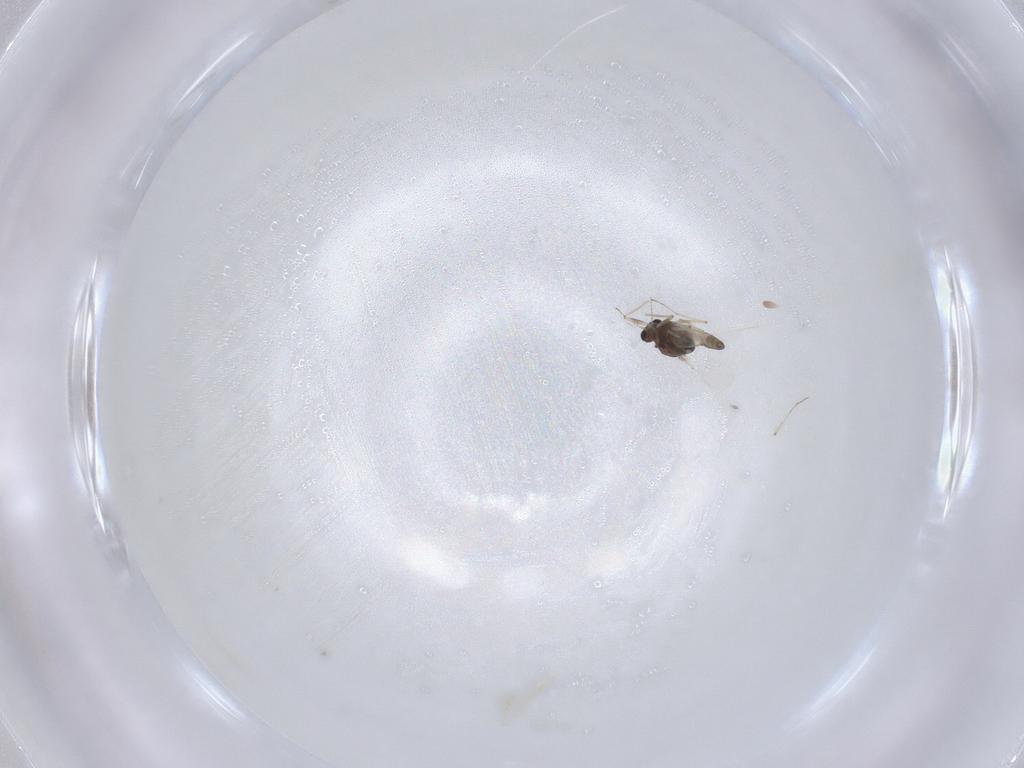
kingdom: Animalia
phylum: Arthropoda
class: Insecta
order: Diptera
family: Chironomidae
